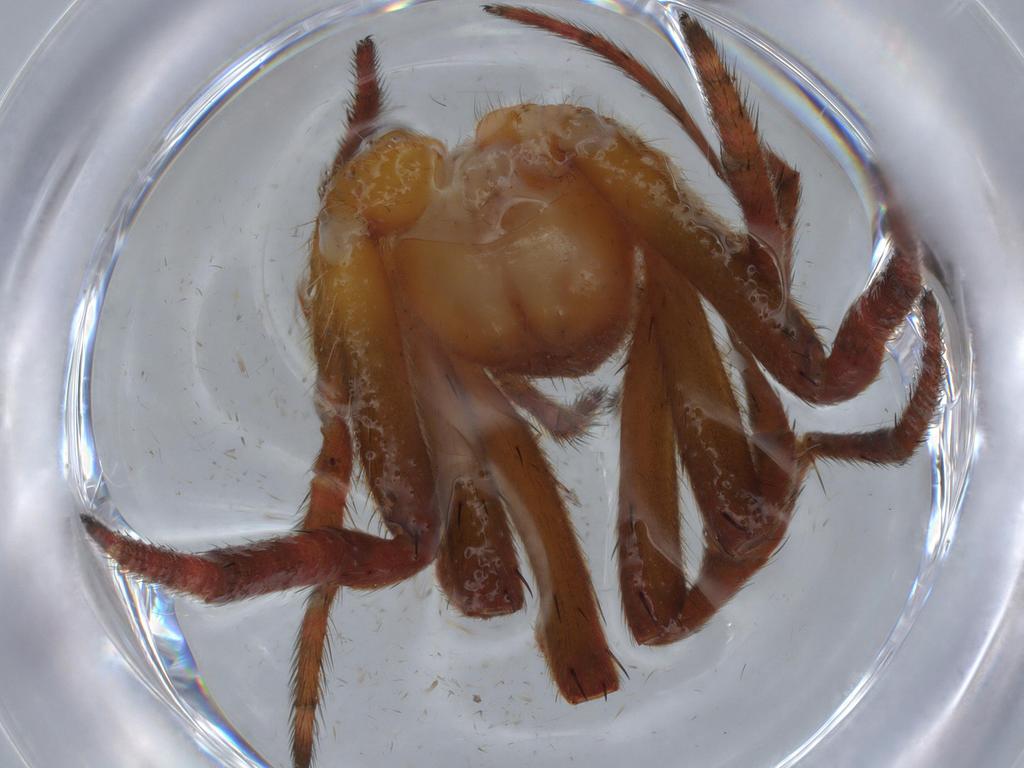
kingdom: Animalia
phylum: Arthropoda
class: Arachnida
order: Araneae
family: Araneidae
